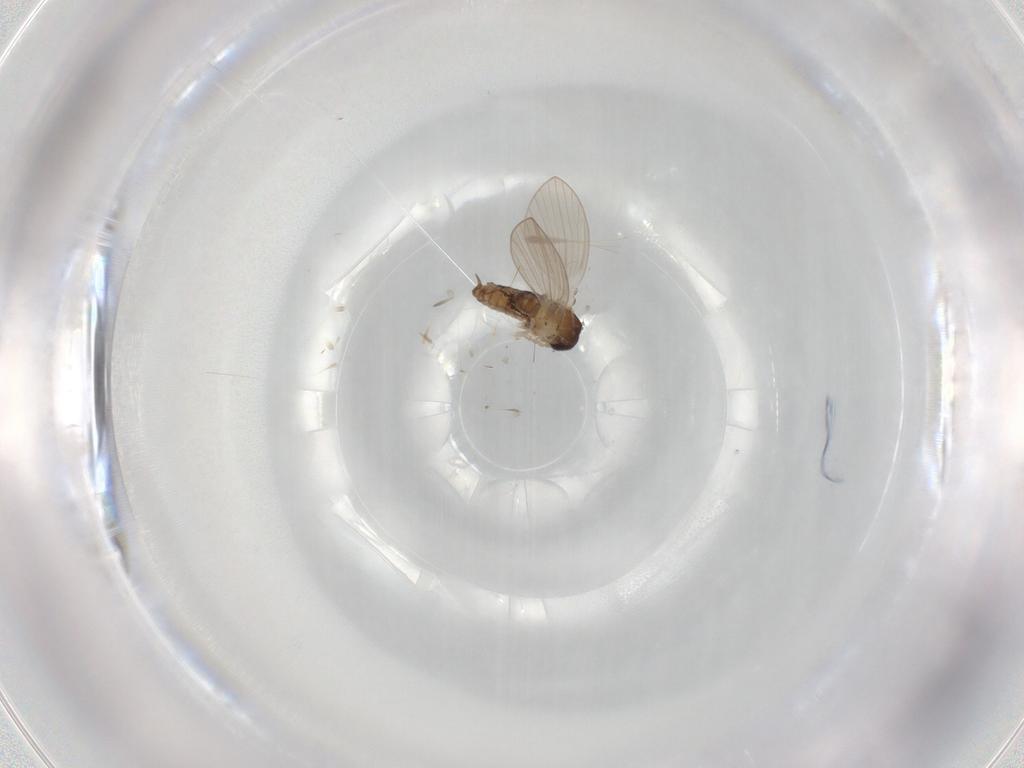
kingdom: Animalia
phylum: Arthropoda
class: Insecta
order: Diptera
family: Psychodidae
